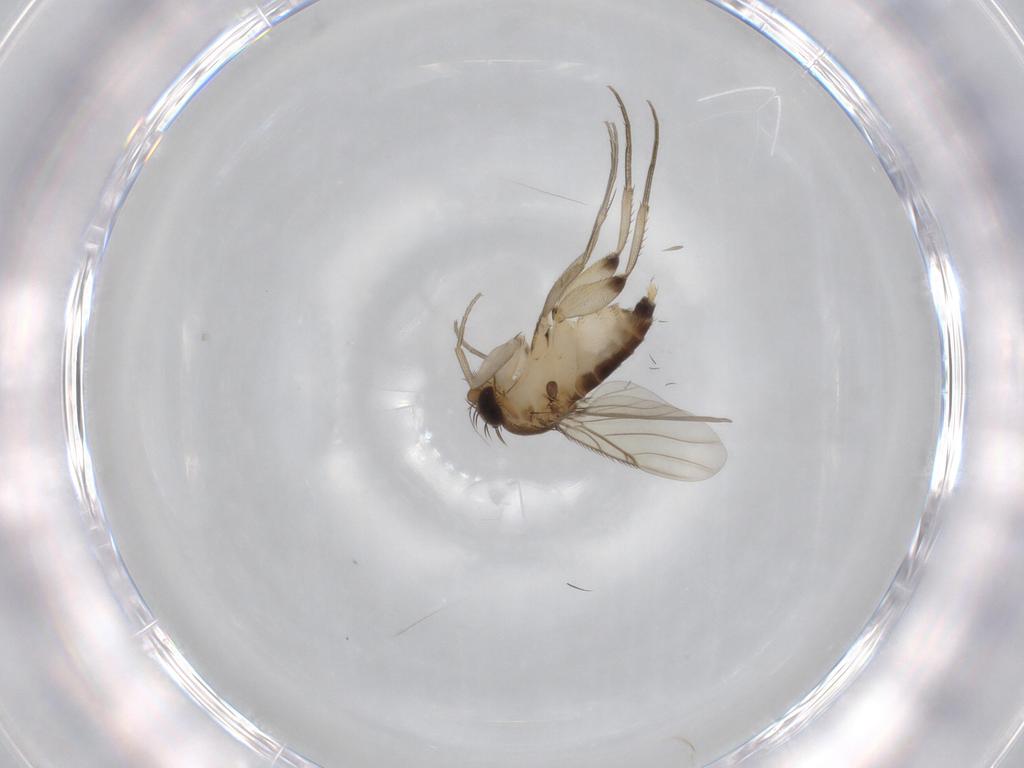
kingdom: Animalia
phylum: Arthropoda
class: Insecta
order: Diptera
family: Phoridae
